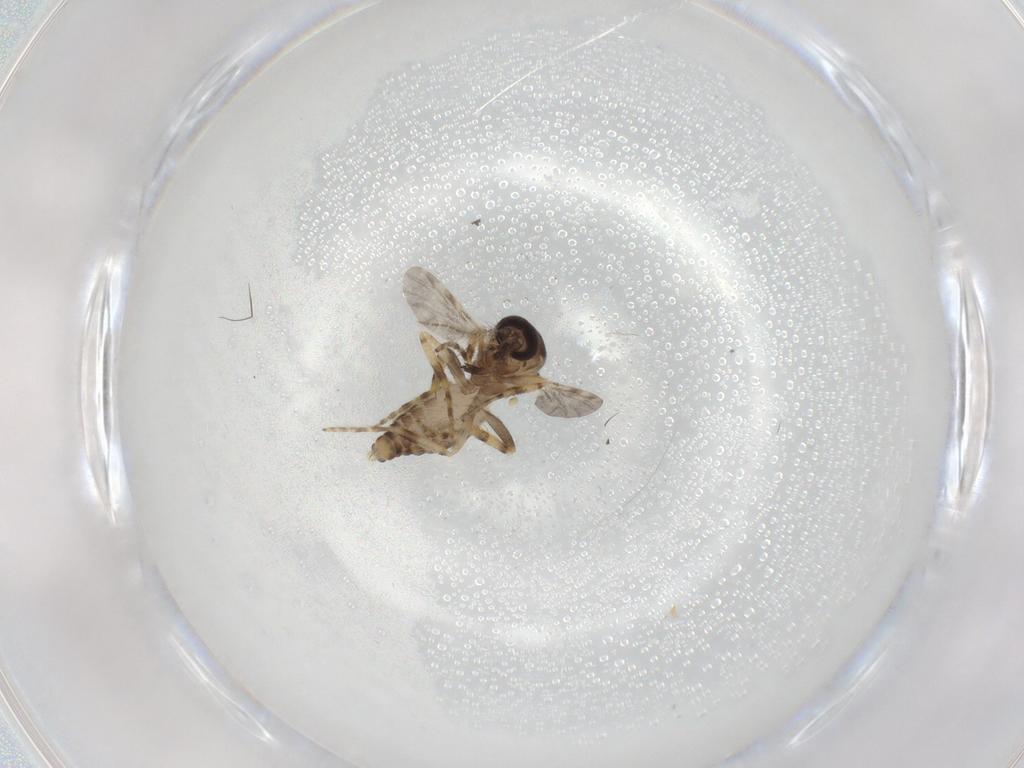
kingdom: Animalia
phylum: Arthropoda
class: Insecta
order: Diptera
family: Ceratopogonidae
